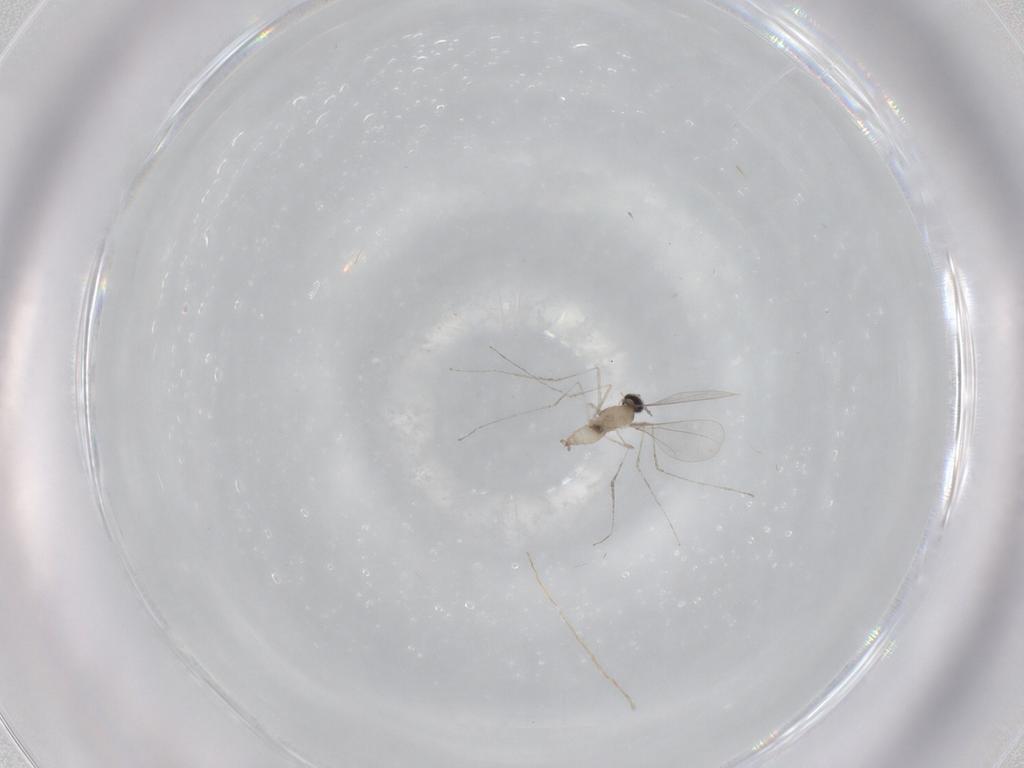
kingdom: Animalia
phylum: Arthropoda
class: Insecta
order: Diptera
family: Cecidomyiidae
